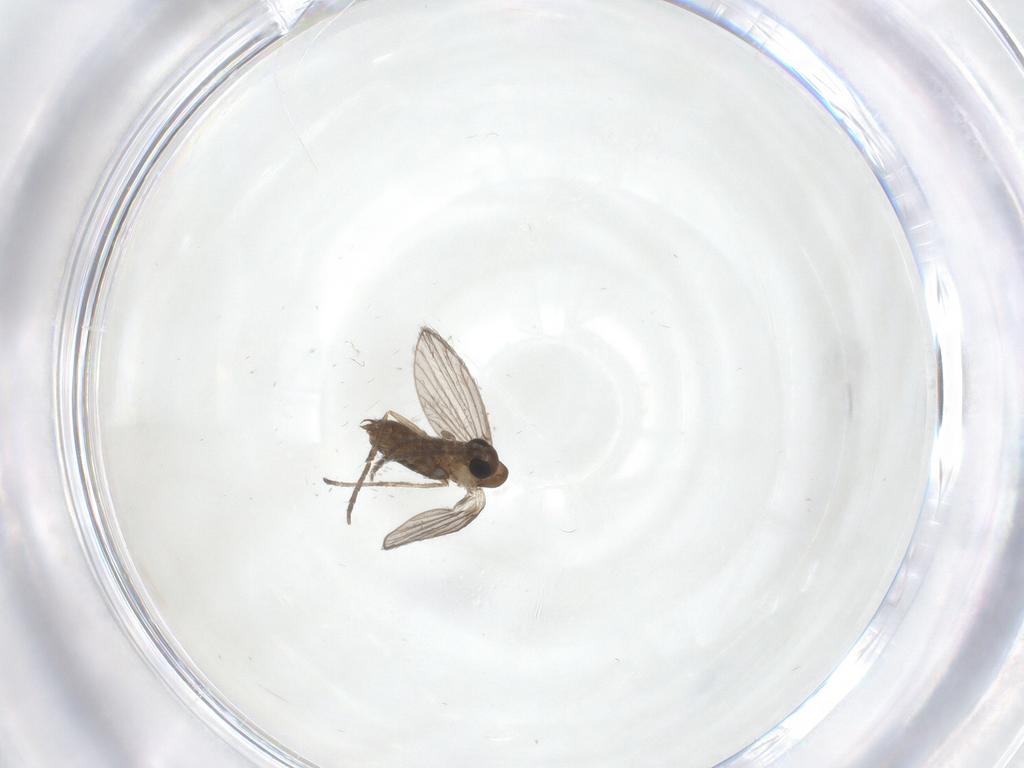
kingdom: Animalia
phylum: Arthropoda
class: Insecta
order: Diptera
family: Psychodidae
